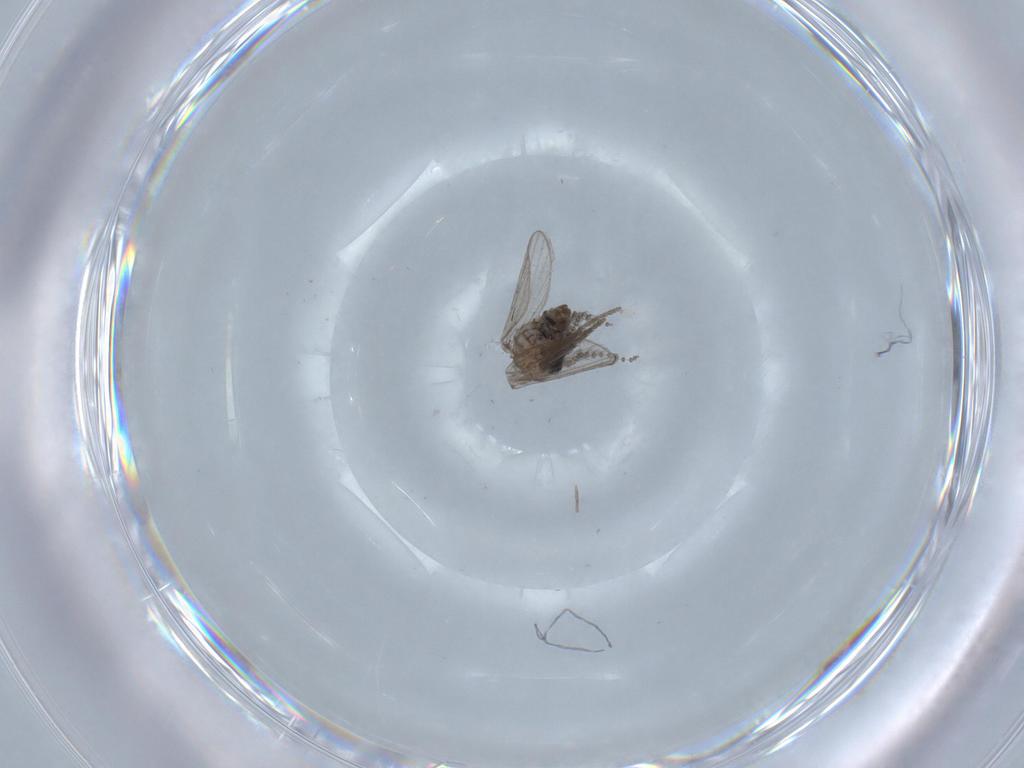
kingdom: Animalia
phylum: Arthropoda
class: Insecta
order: Diptera
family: Psychodidae
